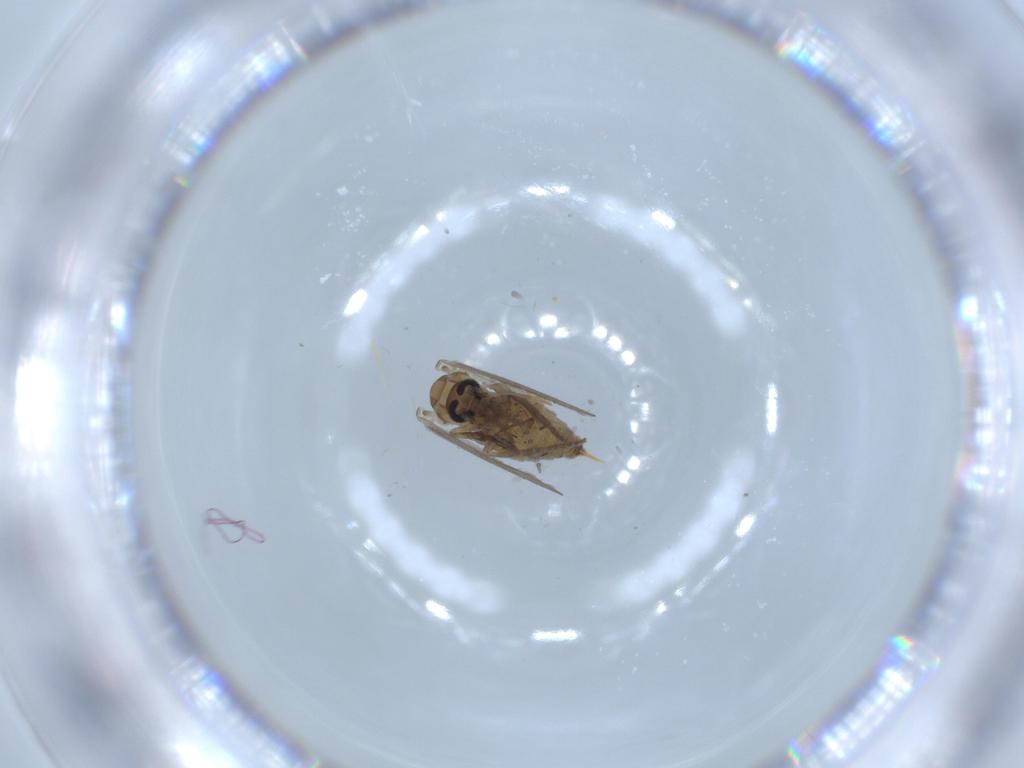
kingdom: Animalia
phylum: Arthropoda
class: Insecta
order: Diptera
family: Psychodidae
